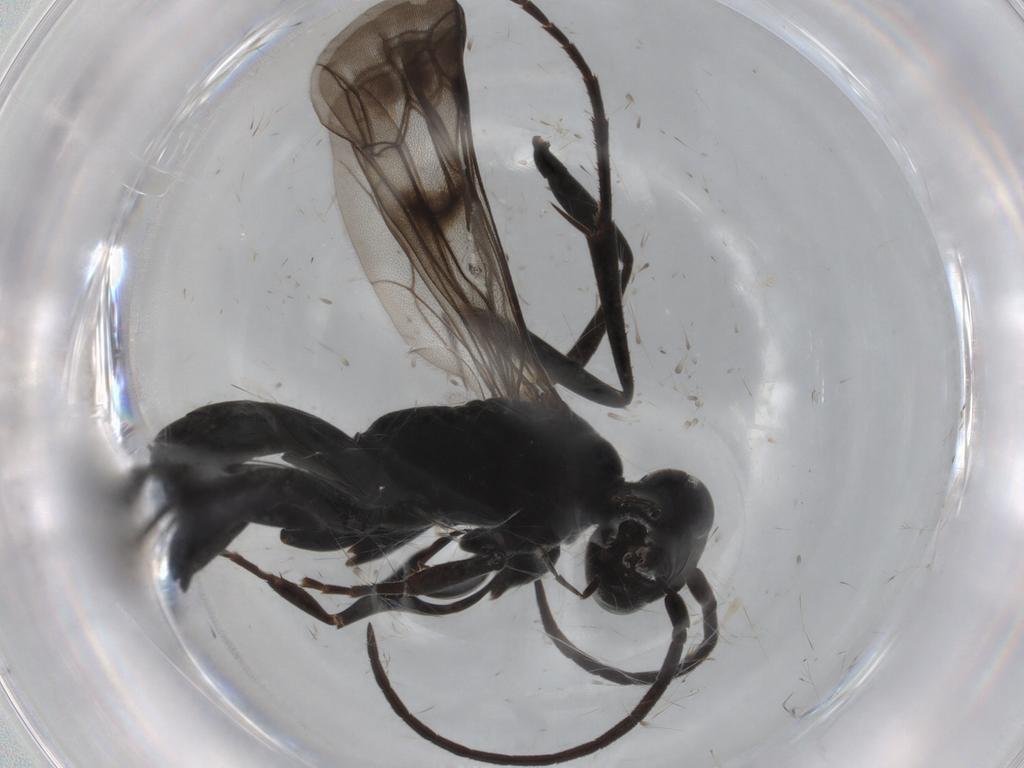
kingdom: Animalia
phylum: Arthropoda
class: Insecta
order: Hymenoptera
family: Pompilidae
